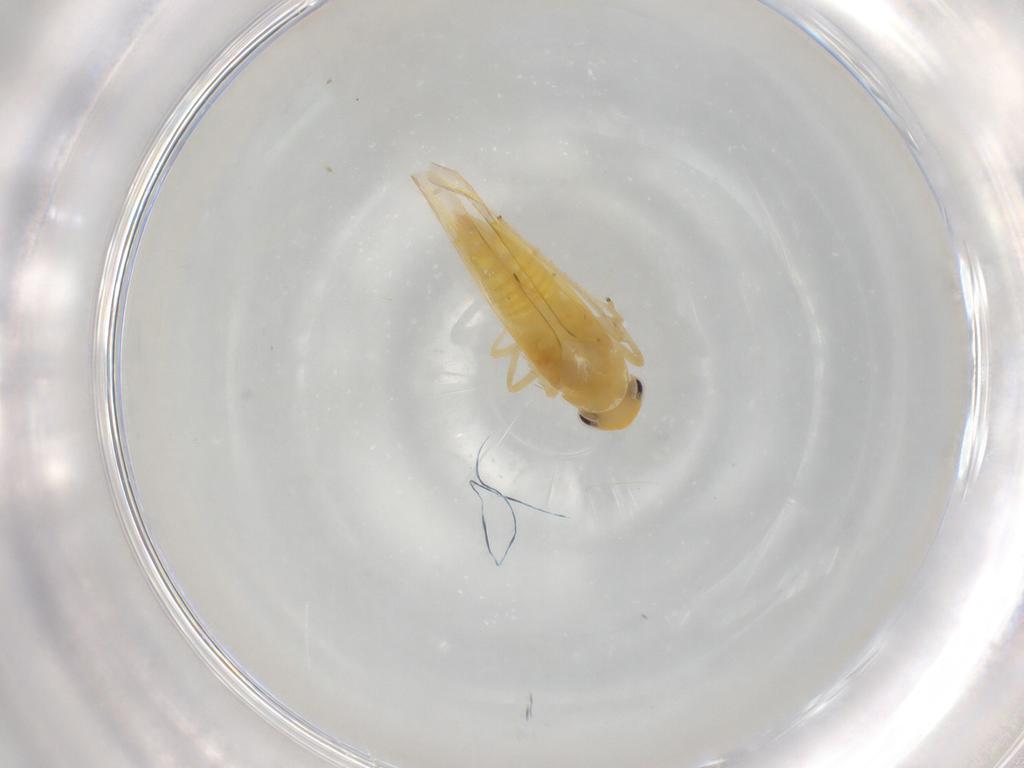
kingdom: Animalia
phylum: Arthropoda
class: Insecta
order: Hemiptera
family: Cicadellidae
